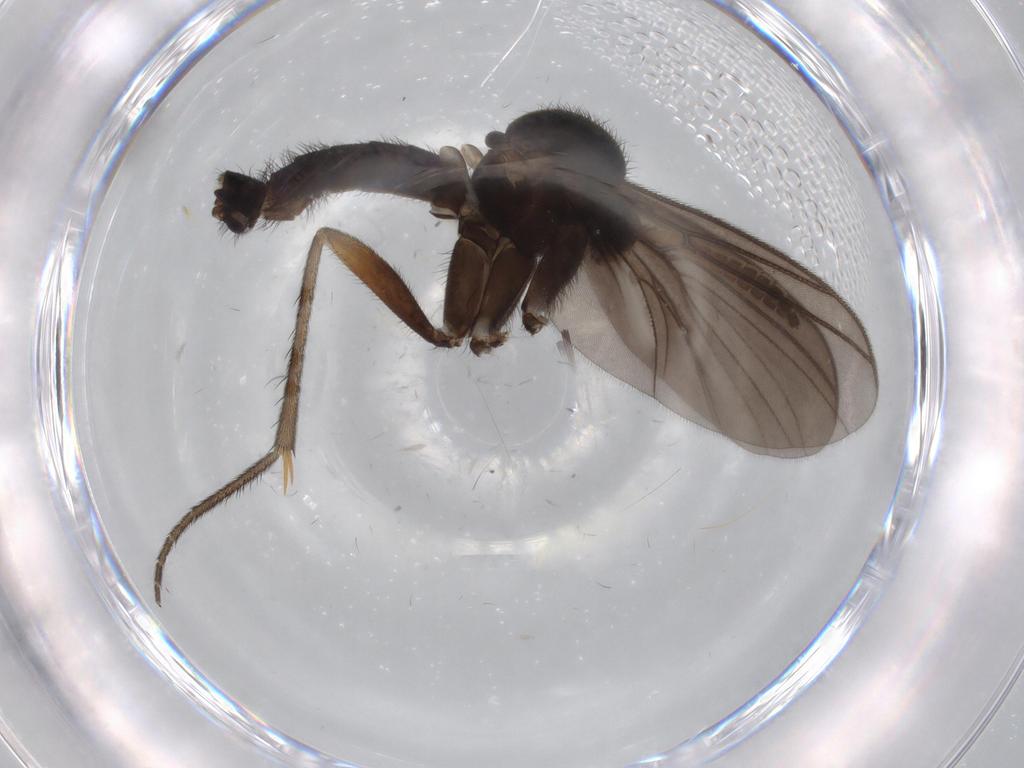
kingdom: Animalia
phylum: Arthropoda
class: Insecta
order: Diptera
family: Mycetophilidae
